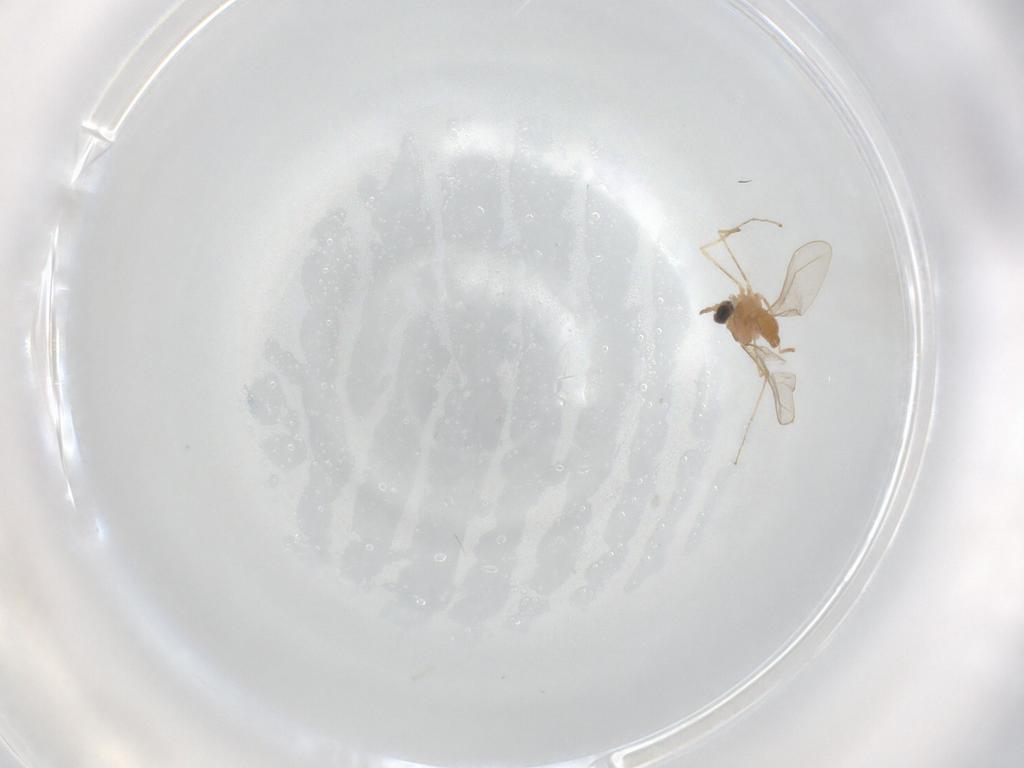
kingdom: Animalia
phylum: Arthropoda
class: Insecta
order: Diptera
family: Cecidomyiidae
